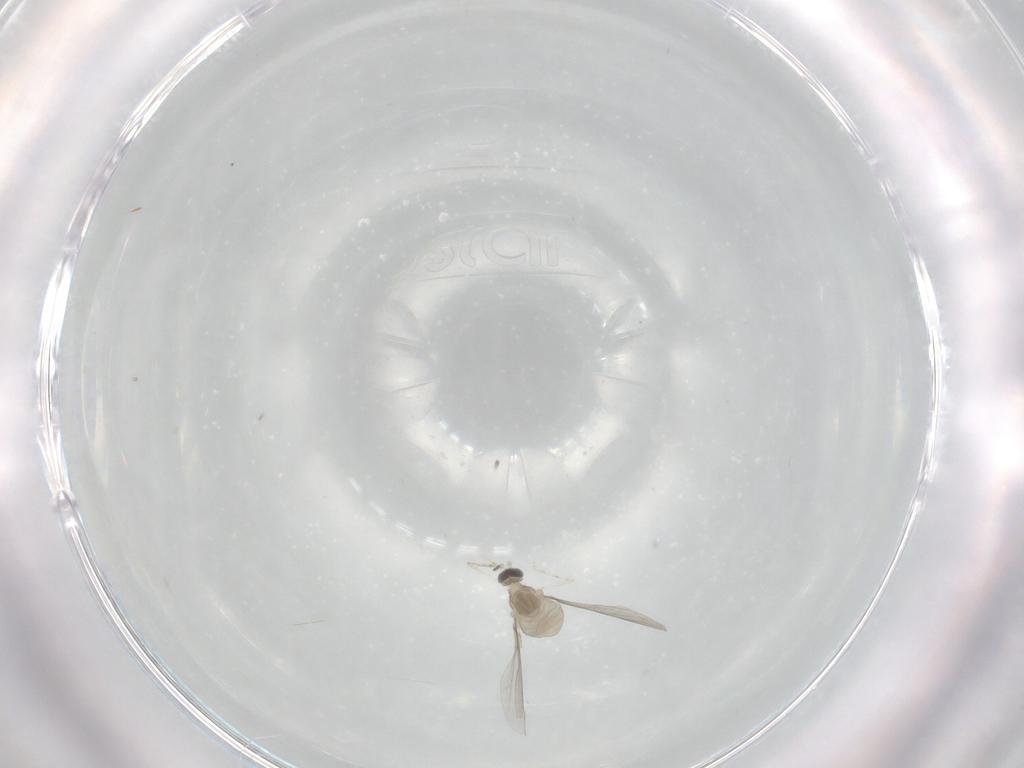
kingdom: Animalia
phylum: Arthropoda
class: Insecta
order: Diptera
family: Cecidomyiidae
